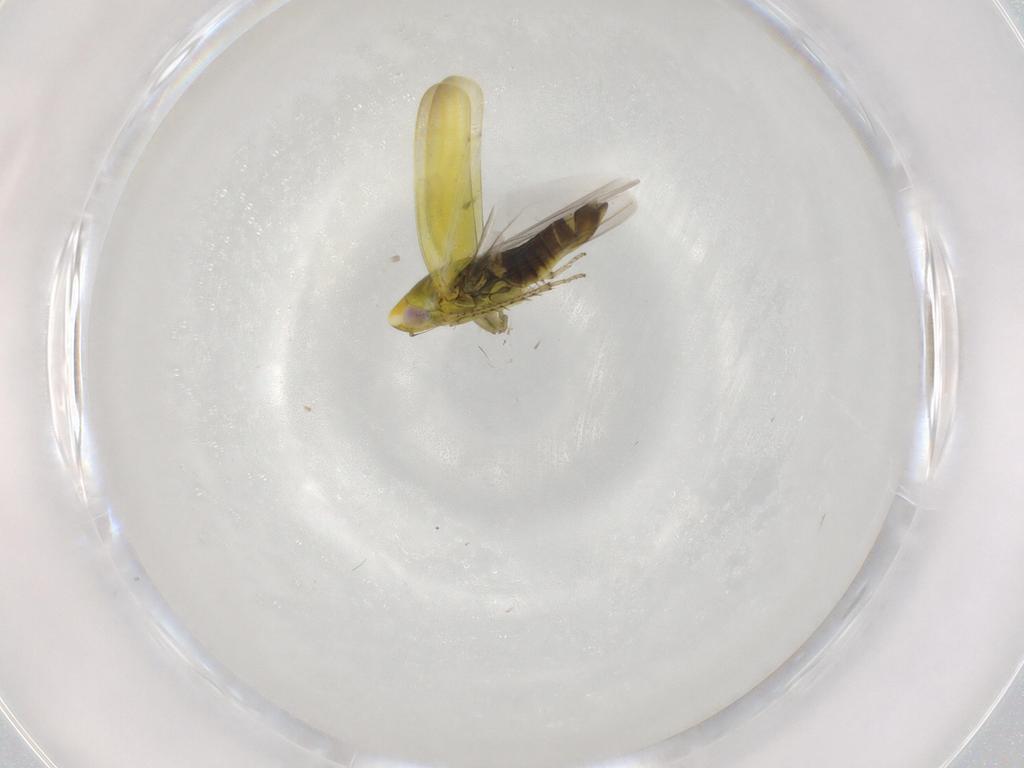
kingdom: Animalia
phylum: Arthropoda
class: Insecta
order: Hemiptera
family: Cicadellidae
